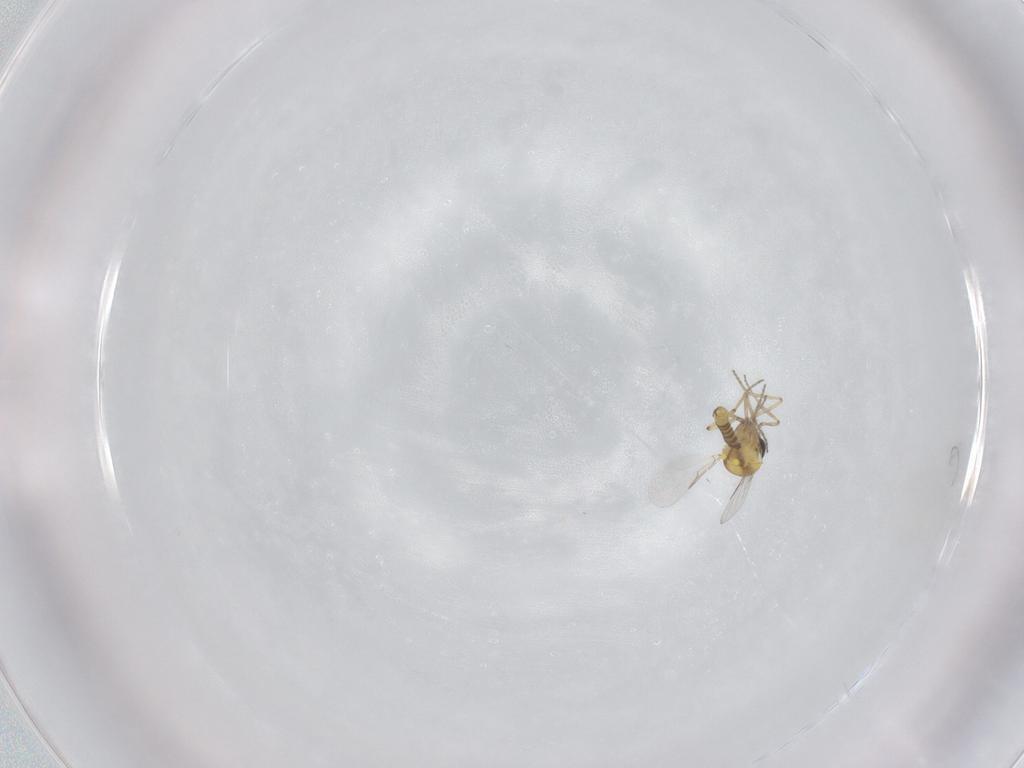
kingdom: Animalia
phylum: Arthropoda
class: Insecta
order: Diptera
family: Ceratopogonidae
